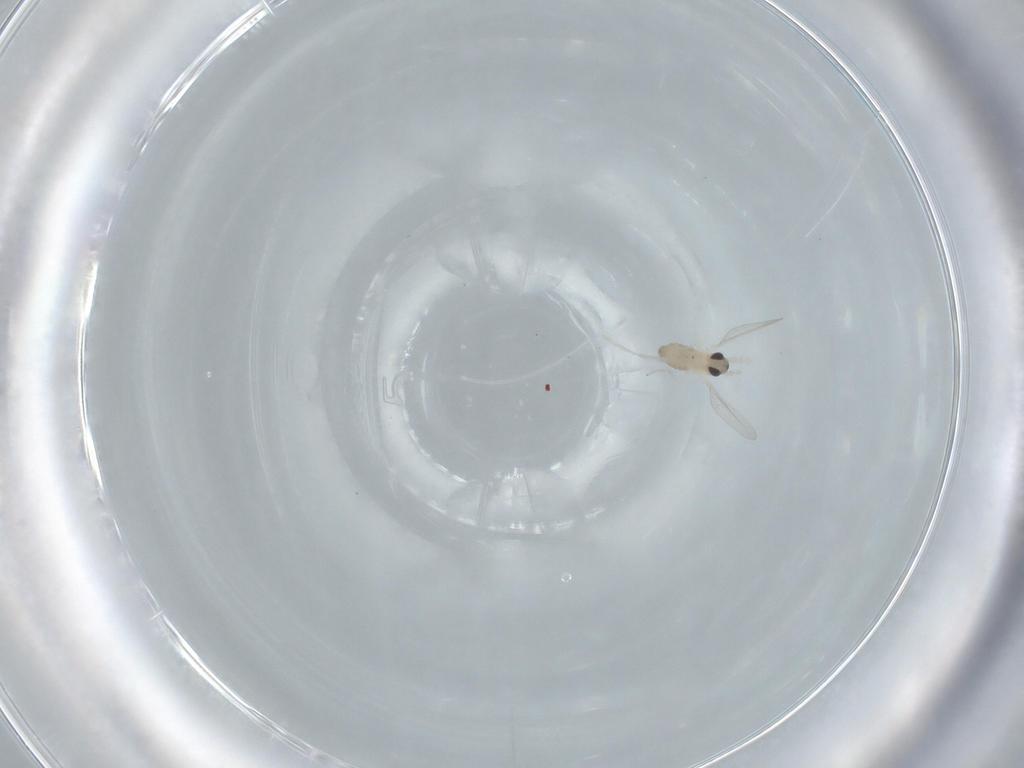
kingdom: Animalia
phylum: Arthropoda
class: Insecta
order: Diptera
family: Cecidomyiidae
